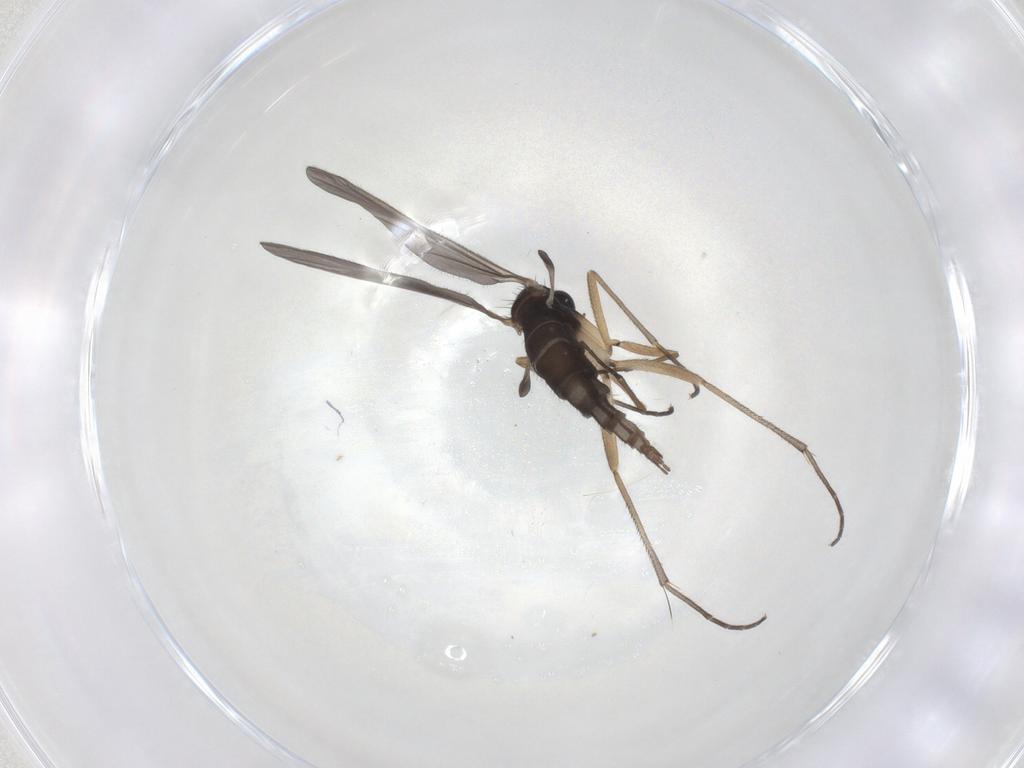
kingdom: Animalia
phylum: Arthropoda
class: Insecta
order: Diptera
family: Sciaridae
